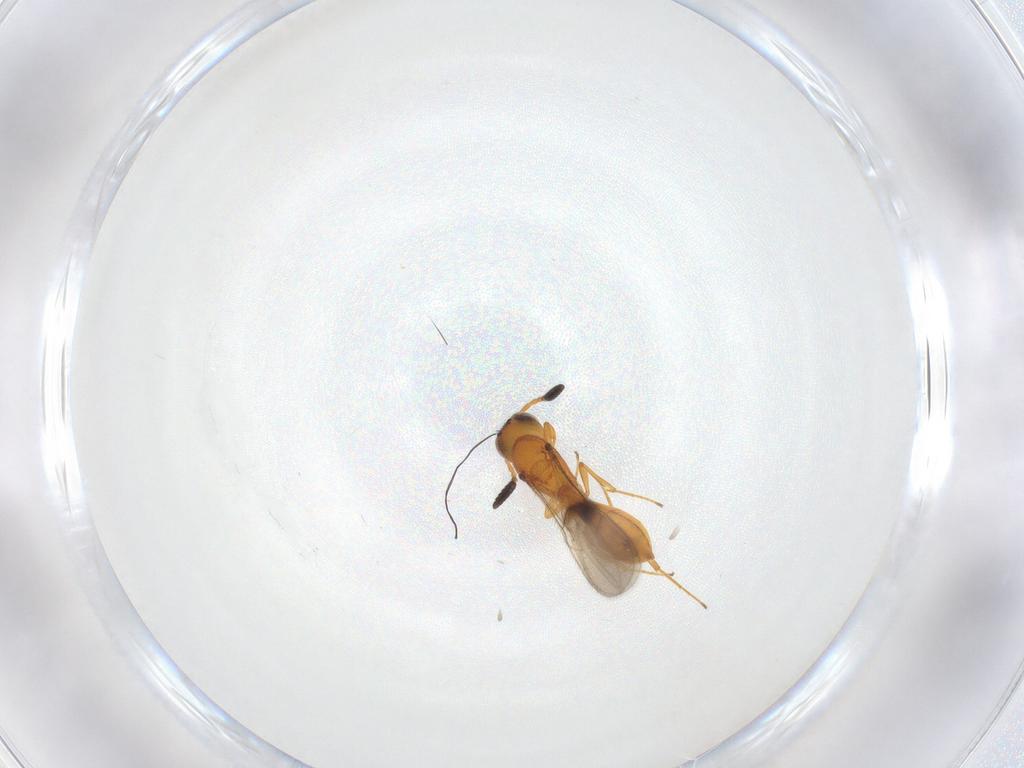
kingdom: Animalia
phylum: Arthropoda
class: Insecta
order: Hymenoptera
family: Scelionidae
